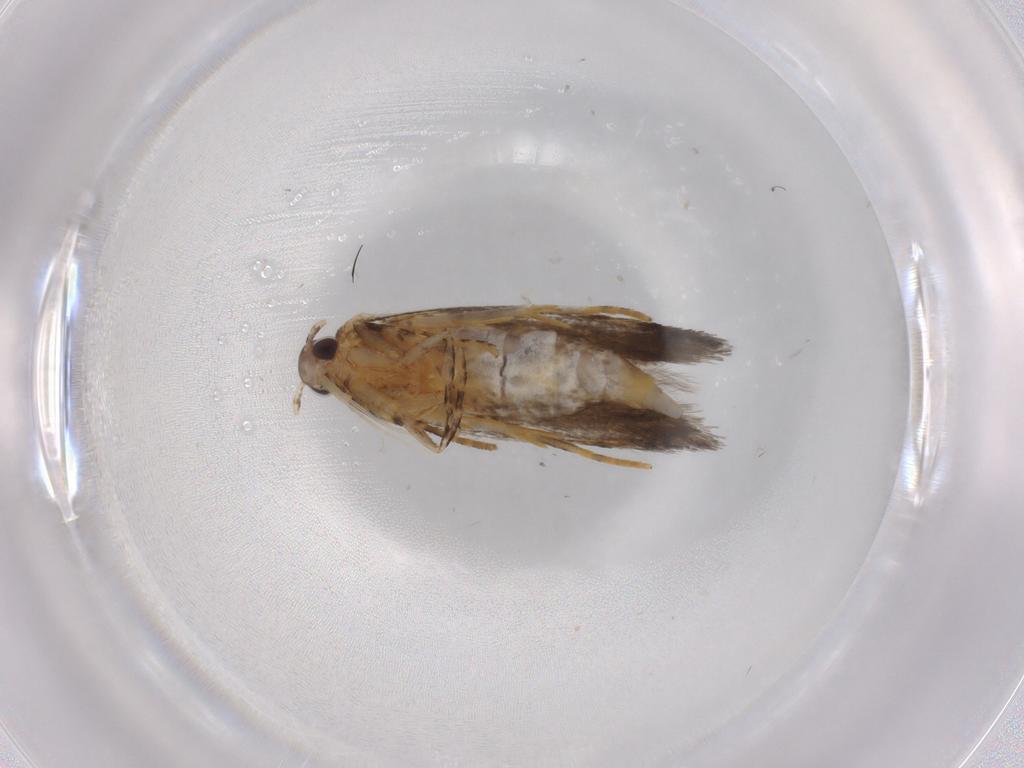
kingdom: Animalia
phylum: Arthropoda
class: Insecta
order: Lepidoptera
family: Autostichidae
